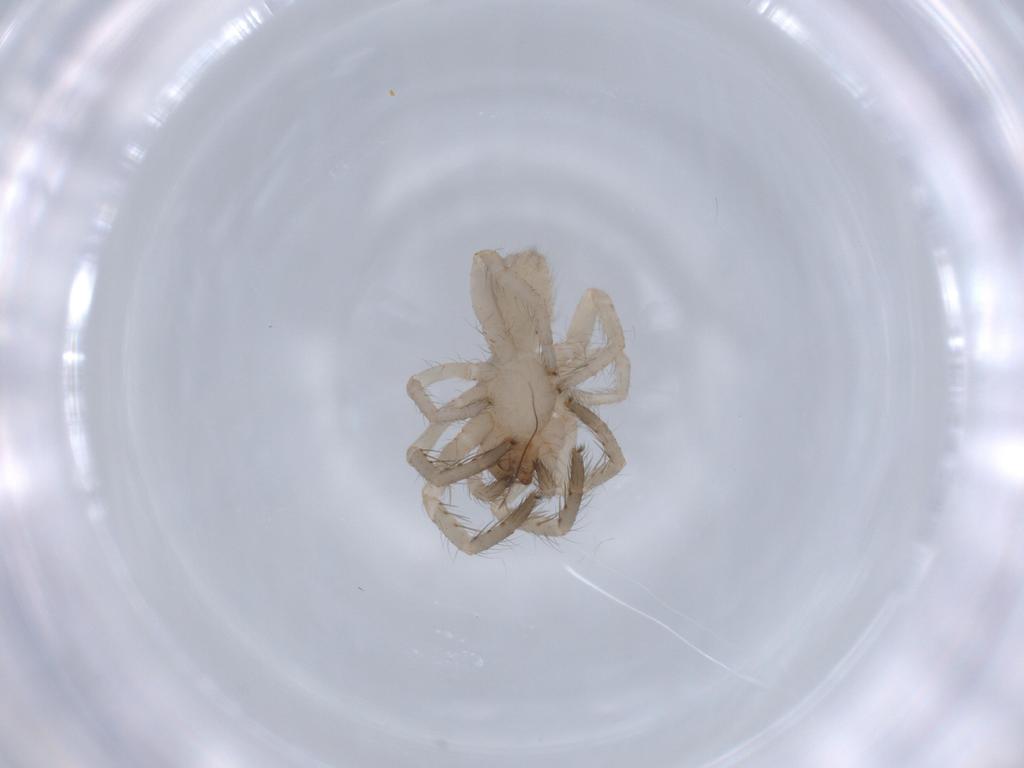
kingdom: Animalia
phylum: Arthropoda
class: Arachnida
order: Araneae
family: Segestriidae
